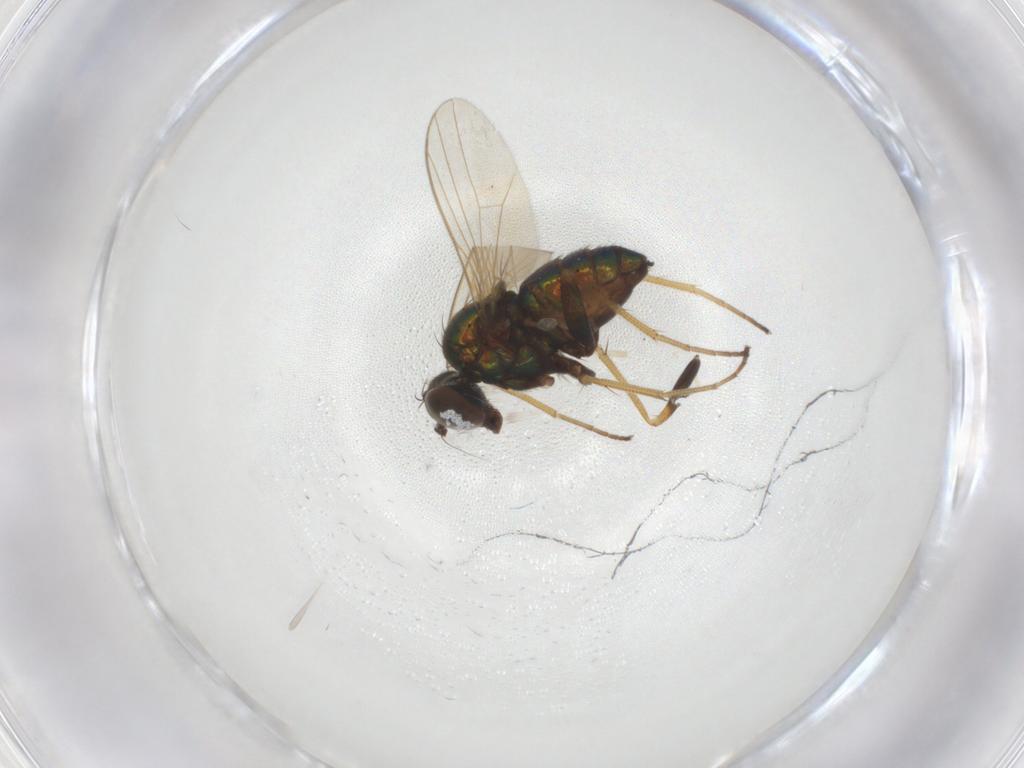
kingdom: Animalia
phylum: Arthropoda
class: Insecta
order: Diptera
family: Dolichopodidae
